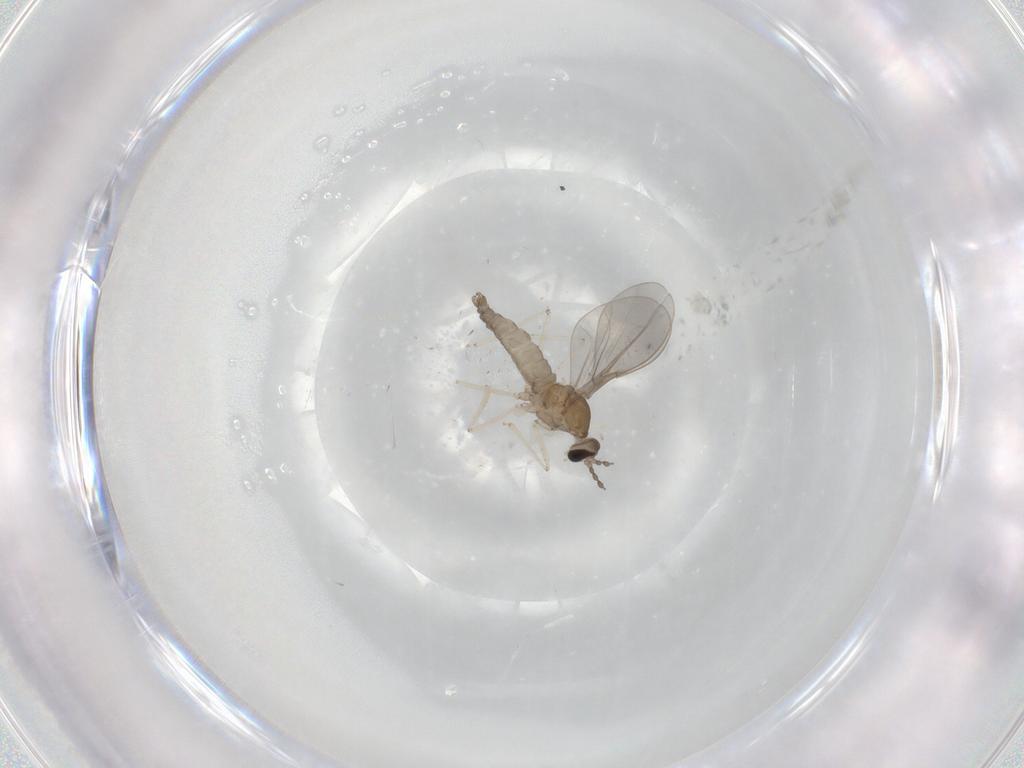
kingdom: Animalia
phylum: Arthropoda
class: Insecta
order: Diptera
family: Cecidomyiidae
